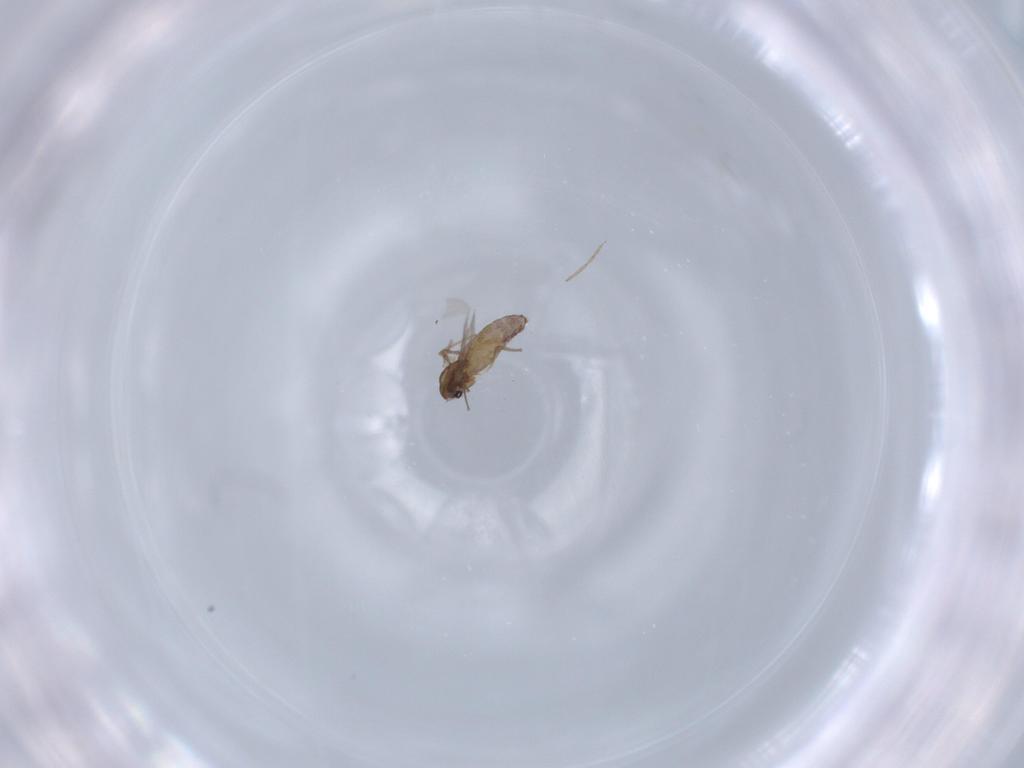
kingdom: Animalia
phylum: Arthropoda
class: Insecta
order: Diptera
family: Chironomidae
